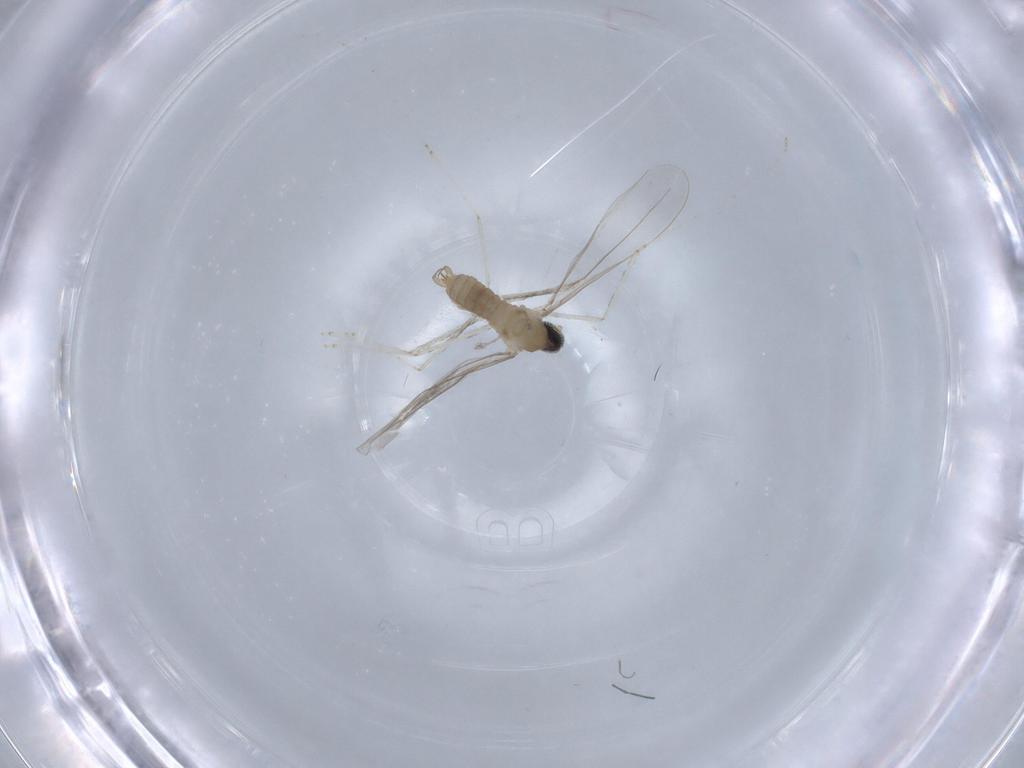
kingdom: Animalia
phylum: Arthropoda
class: Insecta
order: Diptera
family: Cecidomyiidae
